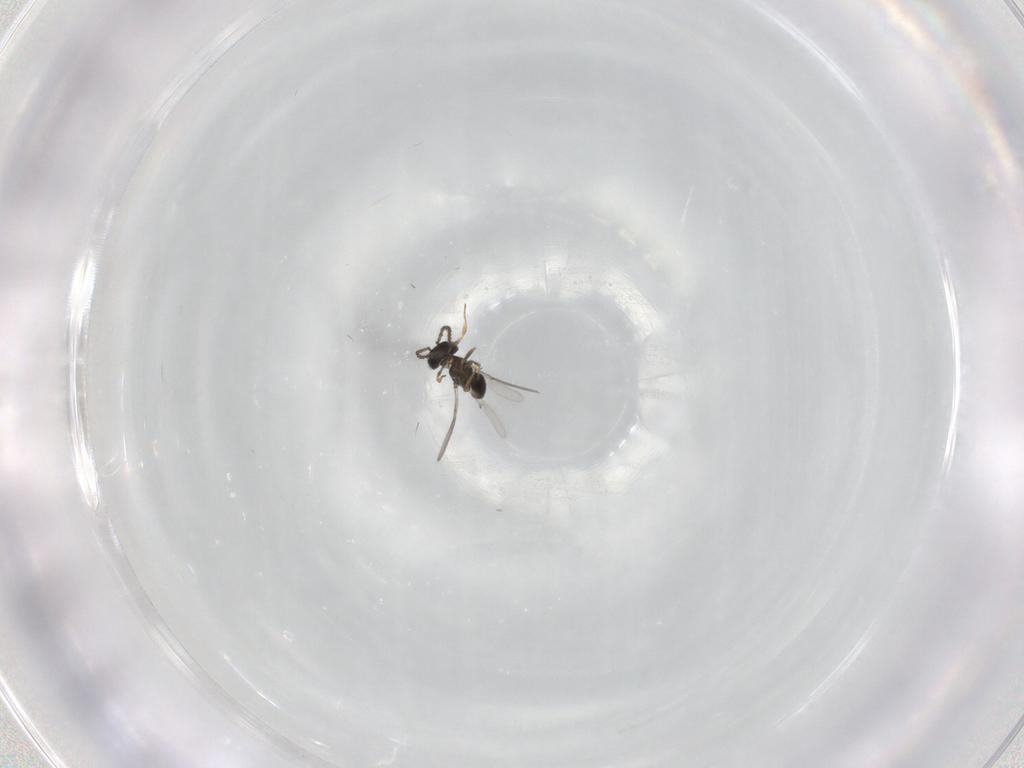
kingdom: Animalia
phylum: Arthropoda
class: Insecta
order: Hymenoptera
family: Scelionidae
